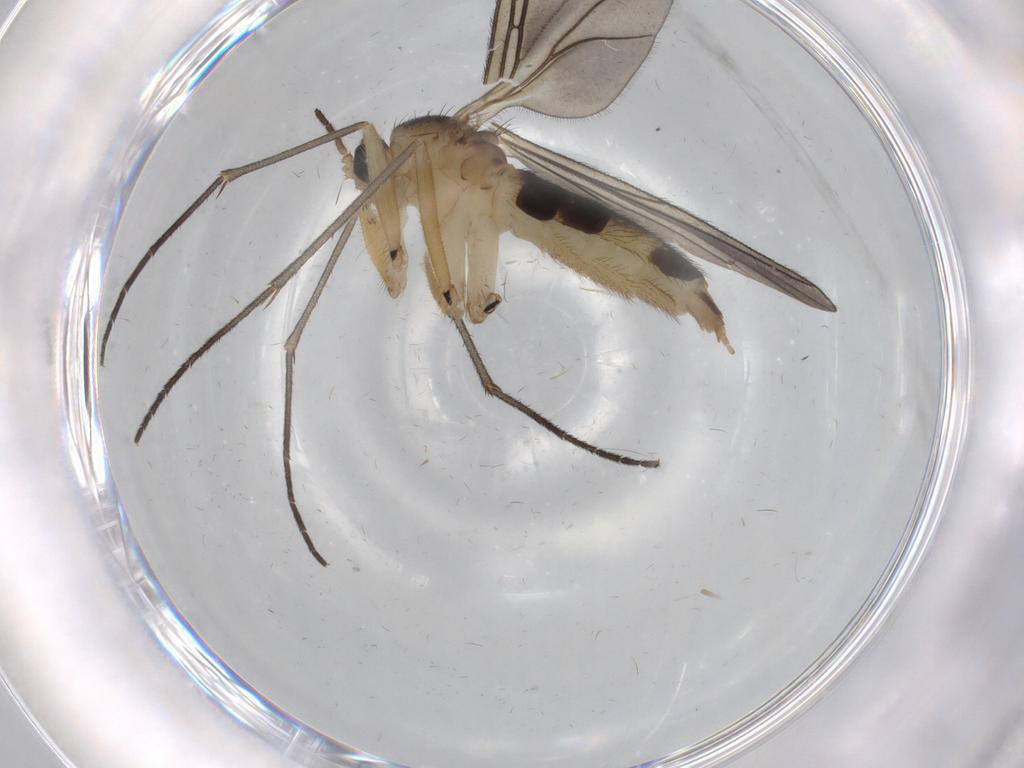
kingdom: Animalia
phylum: Arthropoda
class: Insecta
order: Diptera
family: Sciaridae
